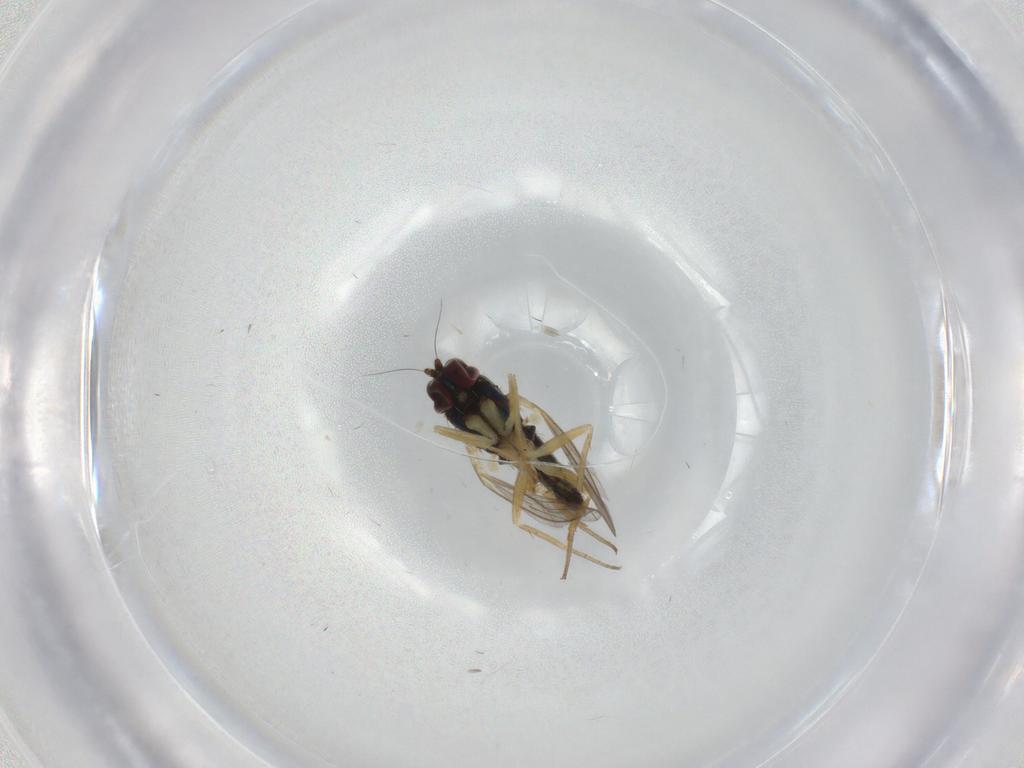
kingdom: Animalia
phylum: Arthropoda
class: Insecta
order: Diptera
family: Dolichopodidae
